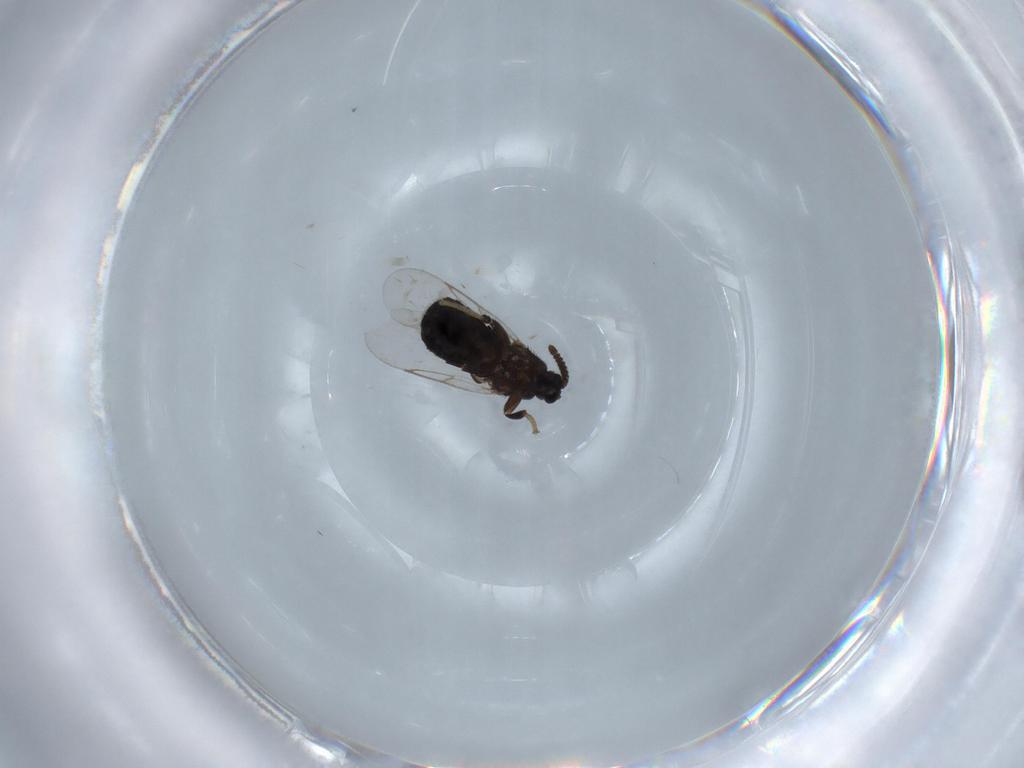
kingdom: Animalia
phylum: Arthropoda
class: Insecta
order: Diptera
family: Scatopsidae
